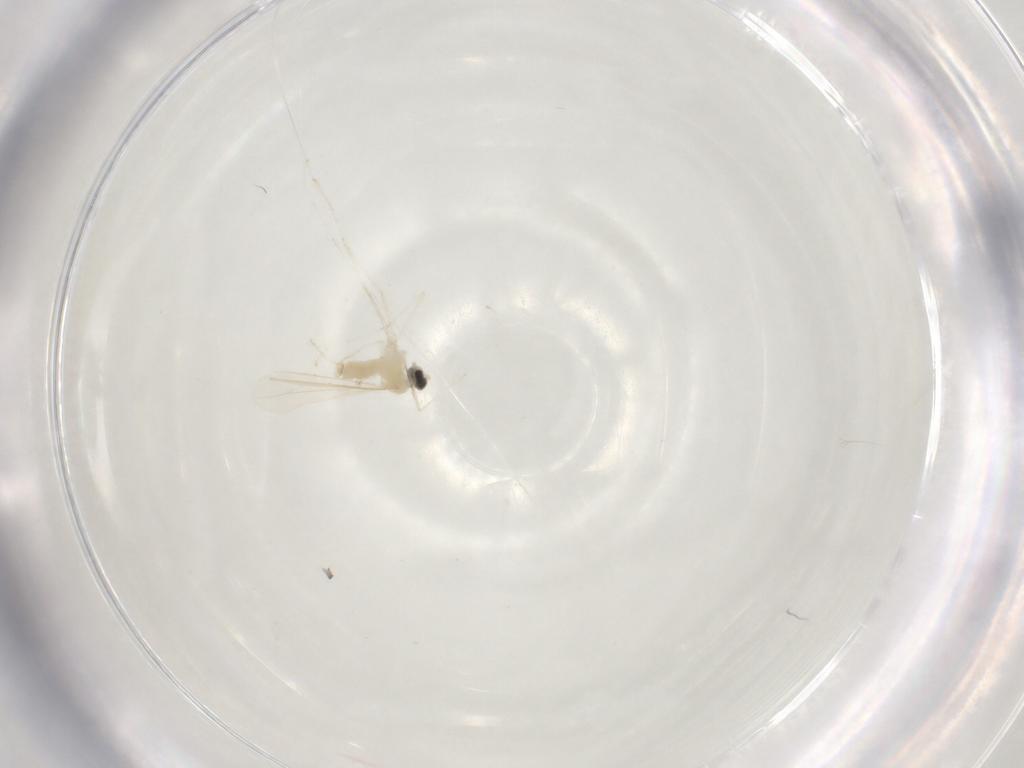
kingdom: Animalia
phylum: Arthropoda
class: Insecta
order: Diptera
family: Cecidomyiidae
